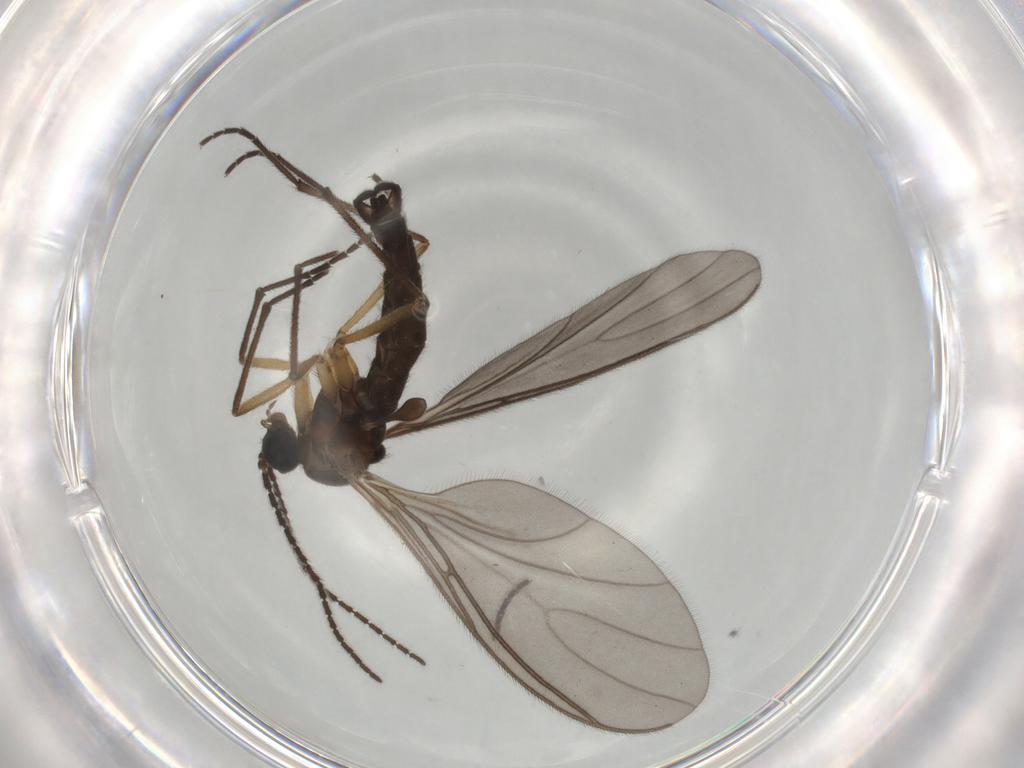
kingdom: Animalia
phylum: Arthropoda
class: Insecta
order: Diptera
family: Sciaridae
